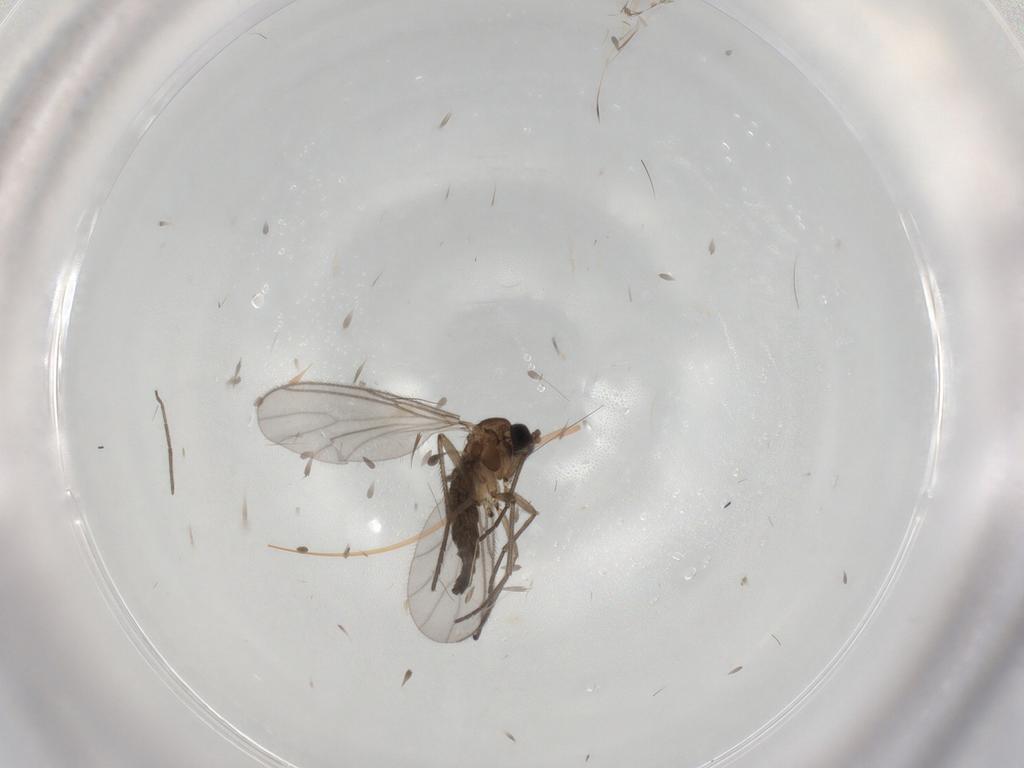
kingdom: Animalia
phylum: Arthropoda
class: Insecta
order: Diptera
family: Sciaridae
